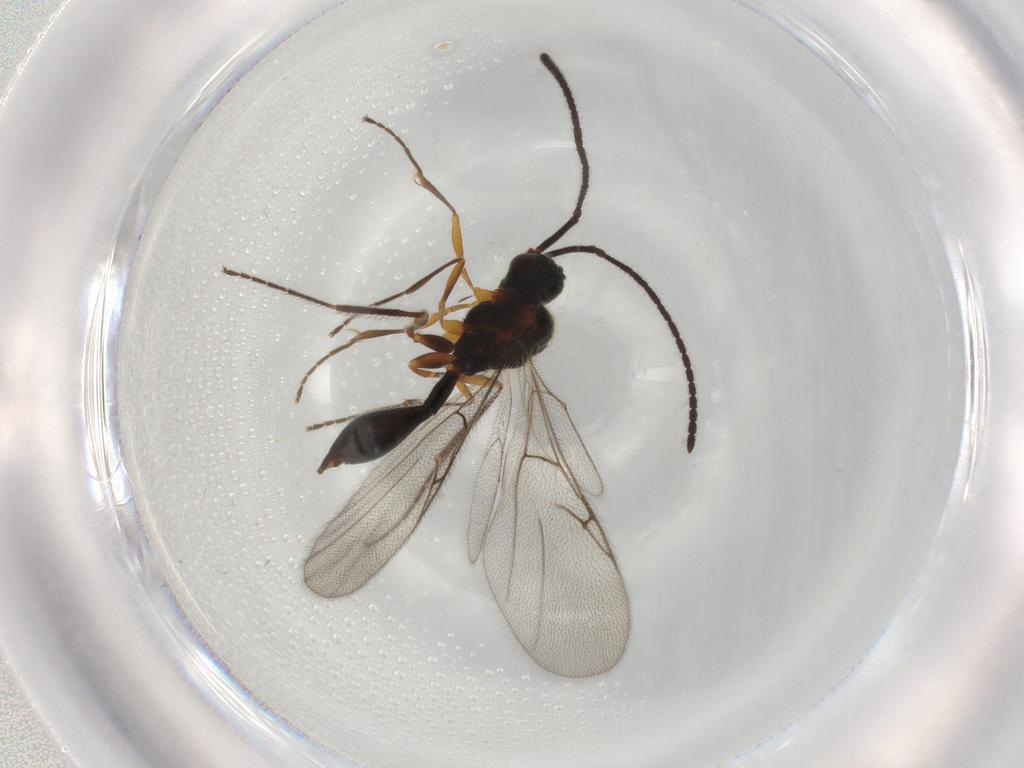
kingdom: Animalia
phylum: Arthropoda
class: Insecta
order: Hymenoptera
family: Diapriidae
